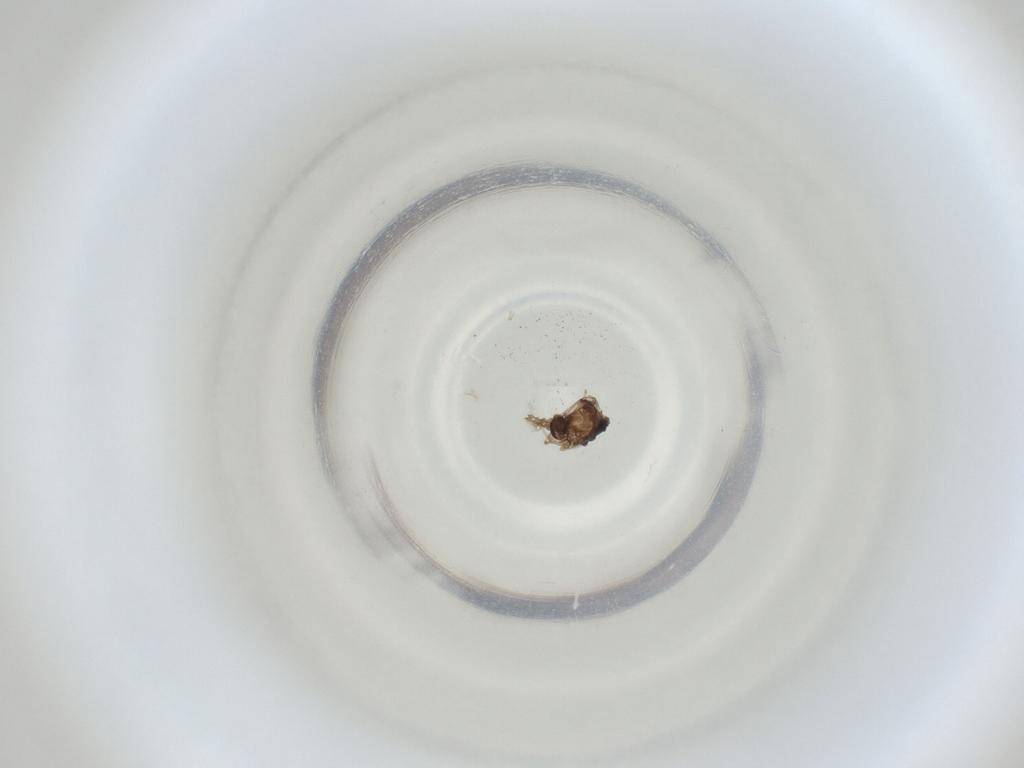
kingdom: Animalia
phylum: Arthropoda
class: Insecta
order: Diptera
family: Cecidomyiidae
